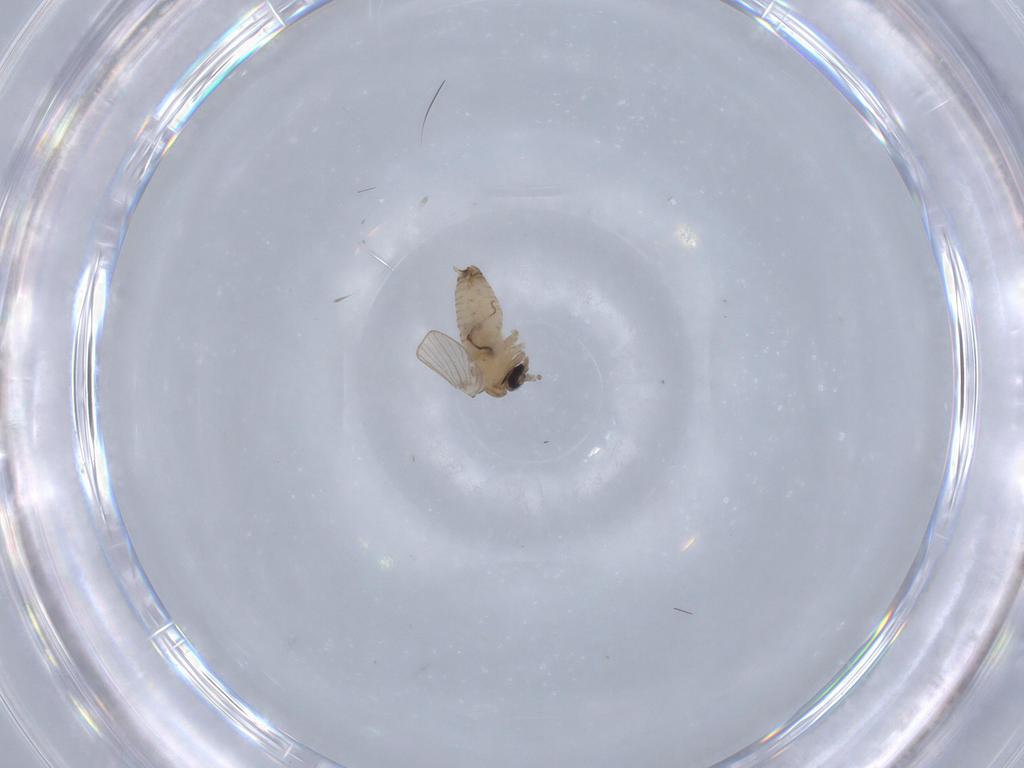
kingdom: Animalia
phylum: Arthropoda
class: Insecta
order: Diptera
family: Psychodidae
